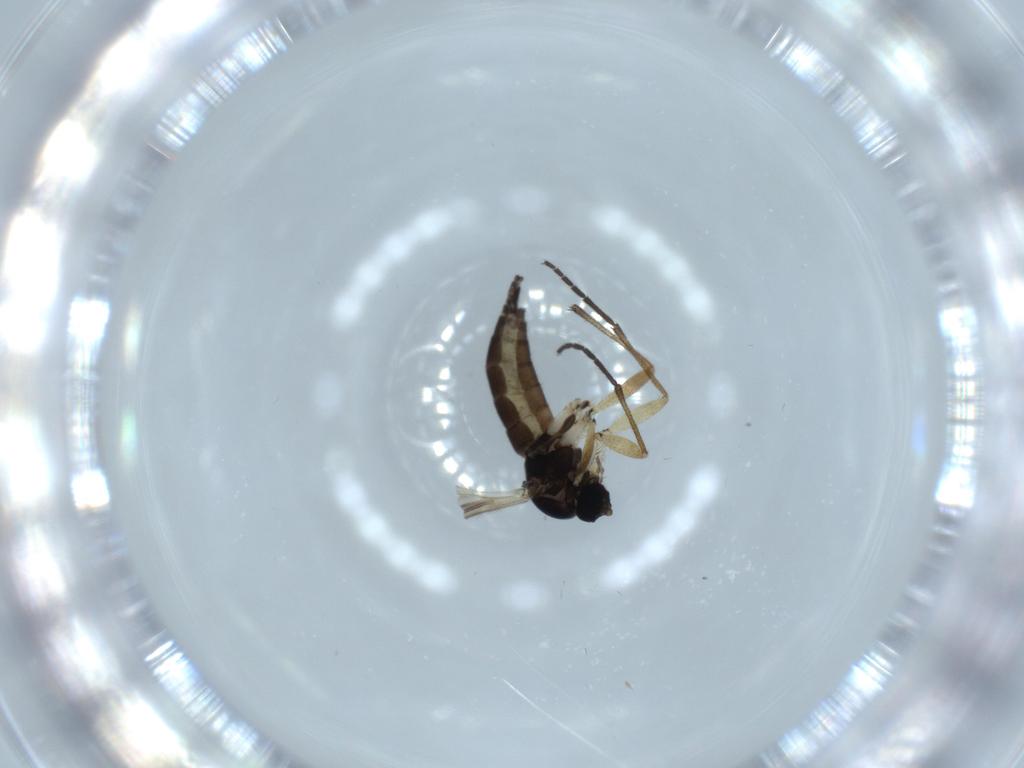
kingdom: Animalia
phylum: Arthropoda
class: Insecta
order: Diptera
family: Sciaridae
